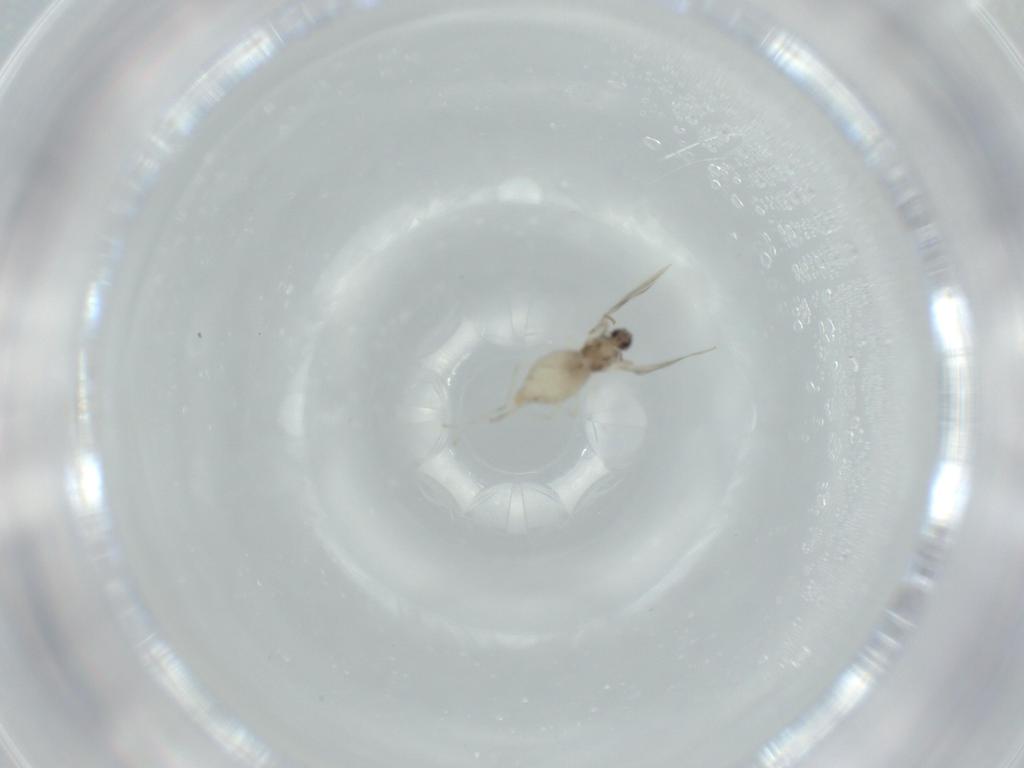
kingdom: Animalia
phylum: Arthropoda
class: Insecta
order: Diptera
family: Cecidomyiidae
